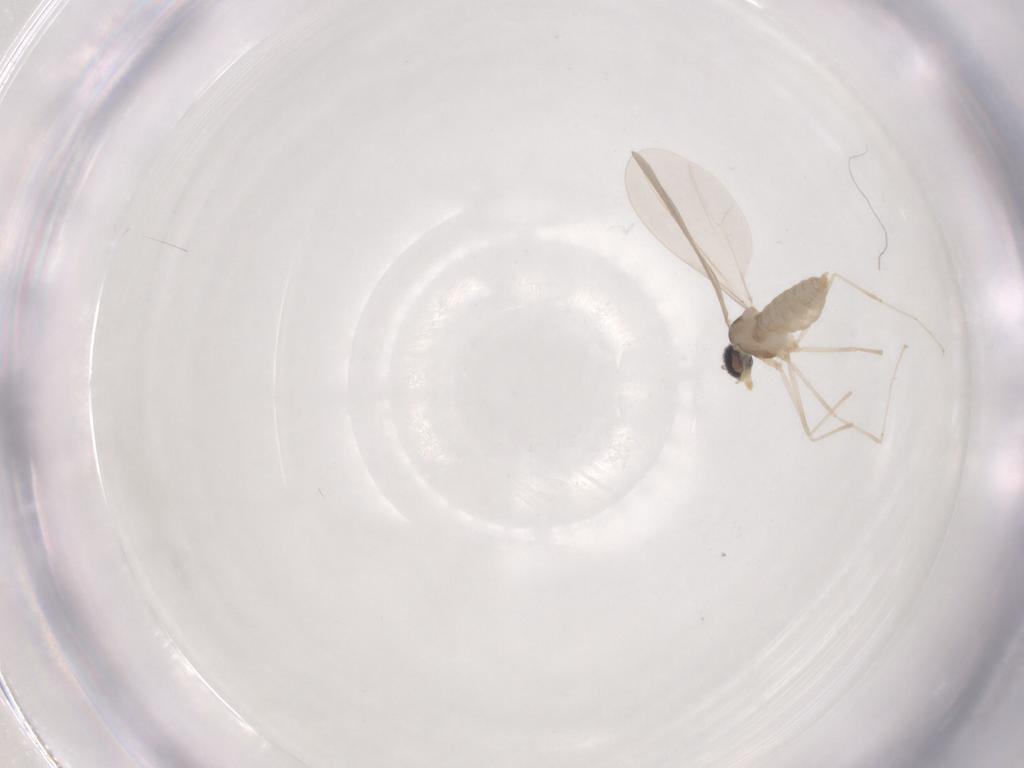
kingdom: Animalia
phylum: Arthropoda
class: Insecta
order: Diptera
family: Cecidomyiidae
